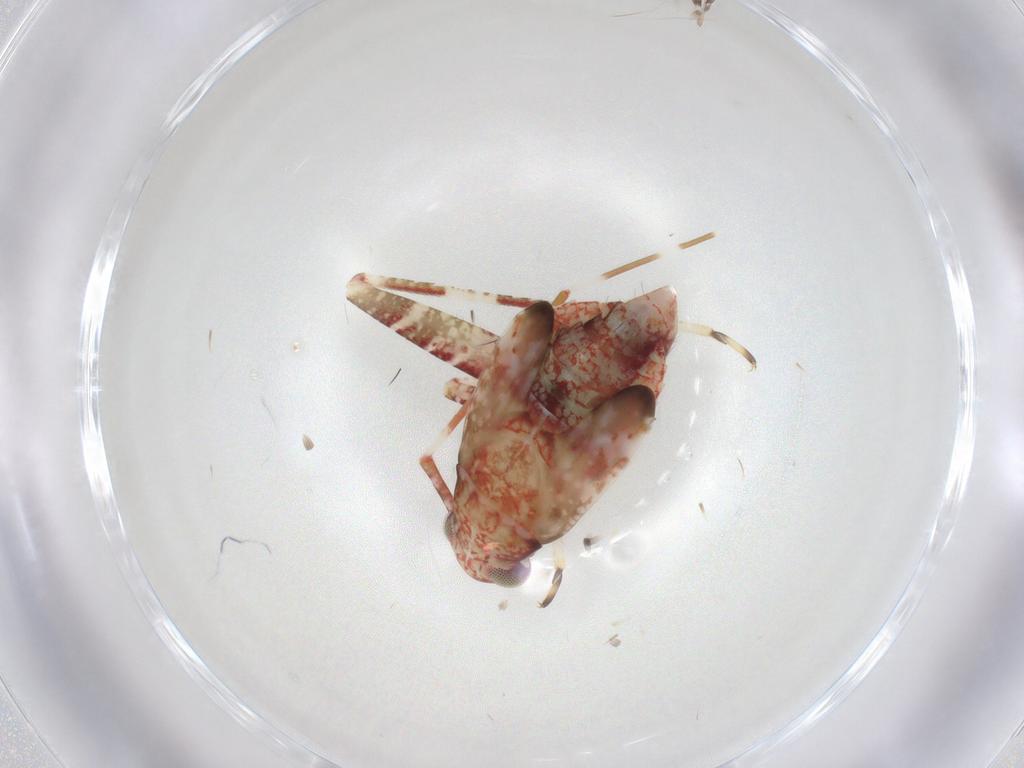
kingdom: Animalia
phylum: Arthropoda
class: Insecta
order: Hemiptera
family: Miridae
